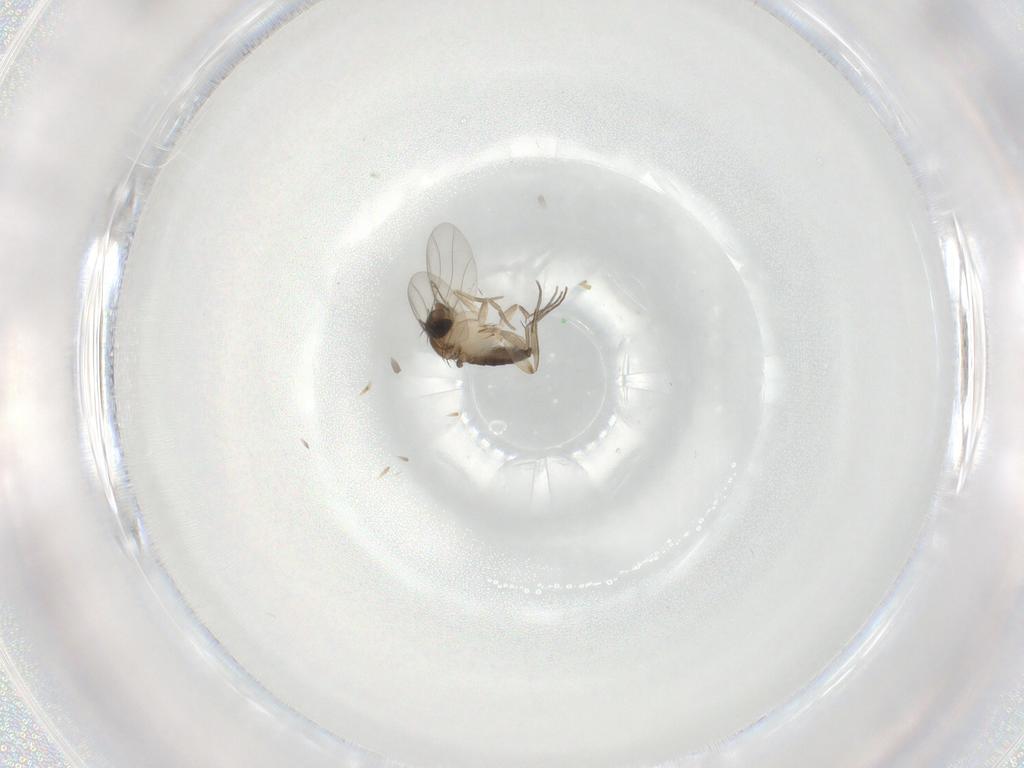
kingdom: Animalia
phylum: Arthropoda
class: Insecta
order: Diptera
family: Phoridae
